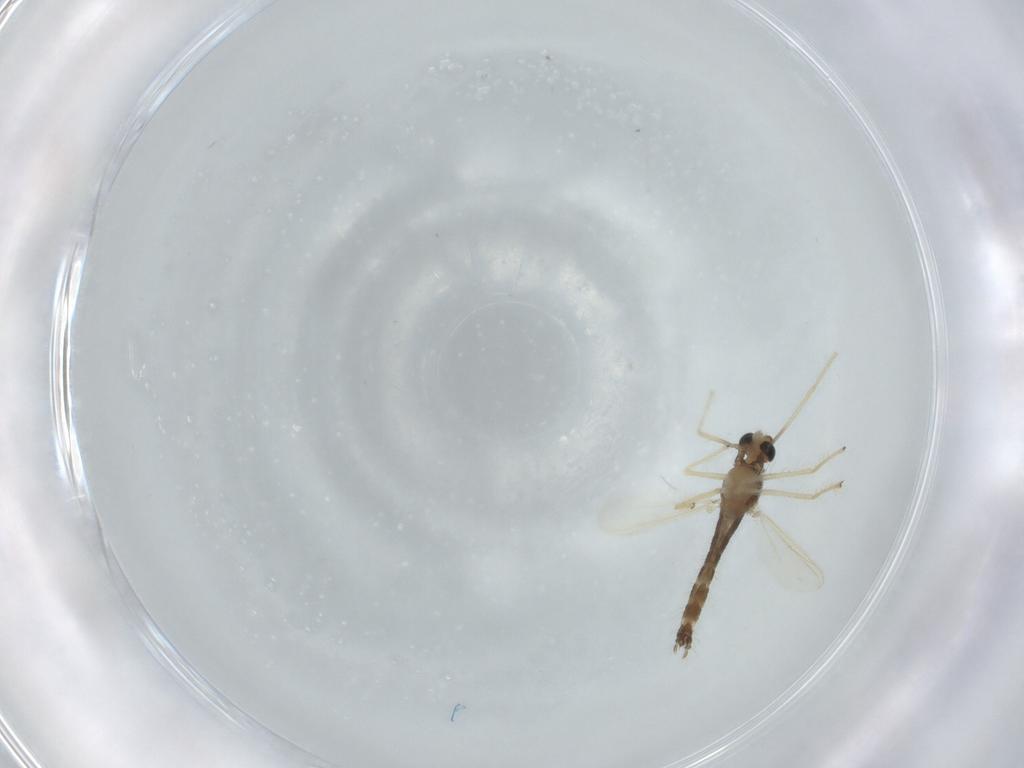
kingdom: Animalia
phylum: Arthropoda
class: Insecta
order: Diptera
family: Chironomidae
